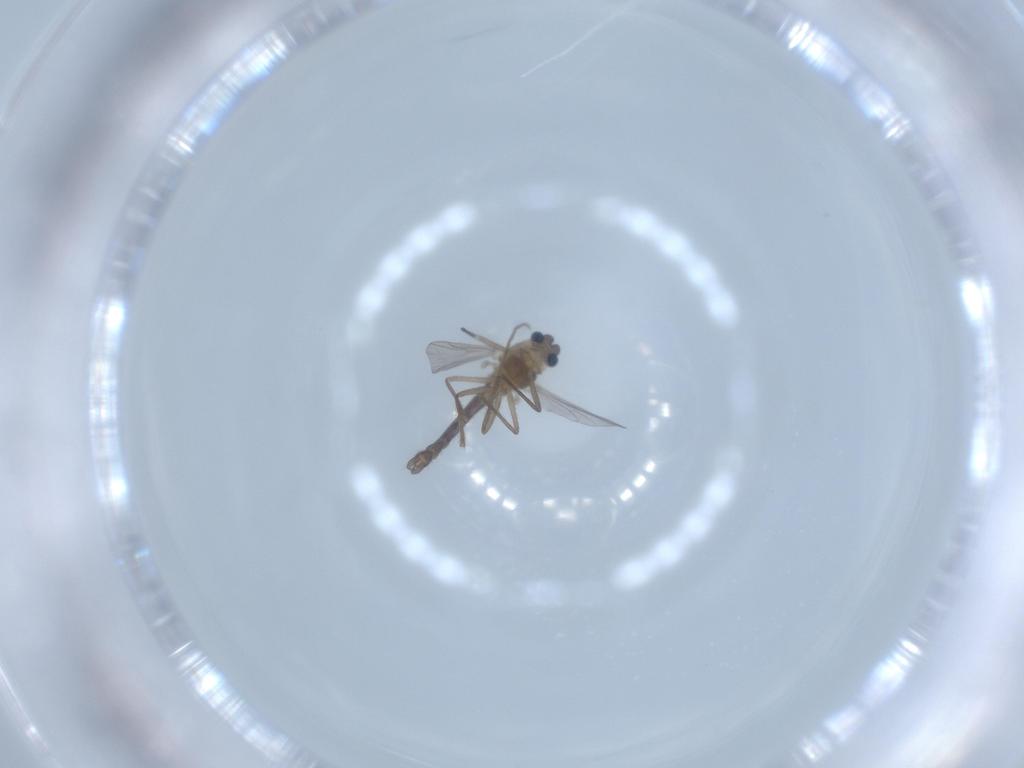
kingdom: Animalia
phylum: Arthropoda
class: Insecta
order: Diptera
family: Chironomidae
